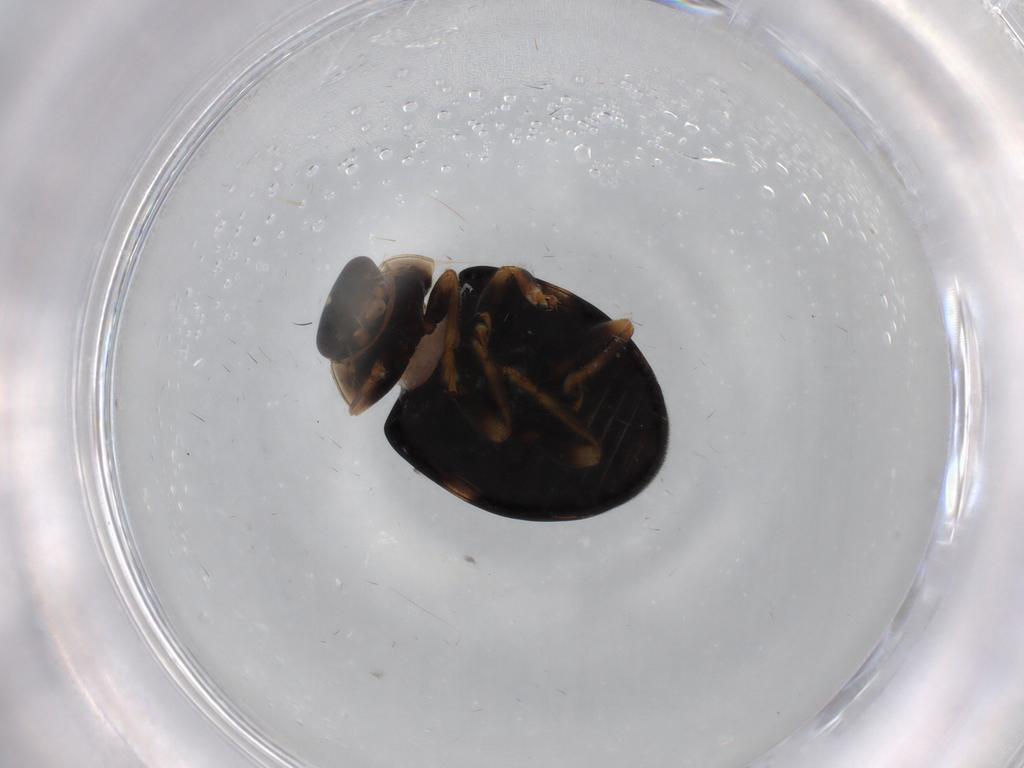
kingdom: Animalia
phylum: Arthropoda
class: Insecta
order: Coleoptera
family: Coccinellidae
